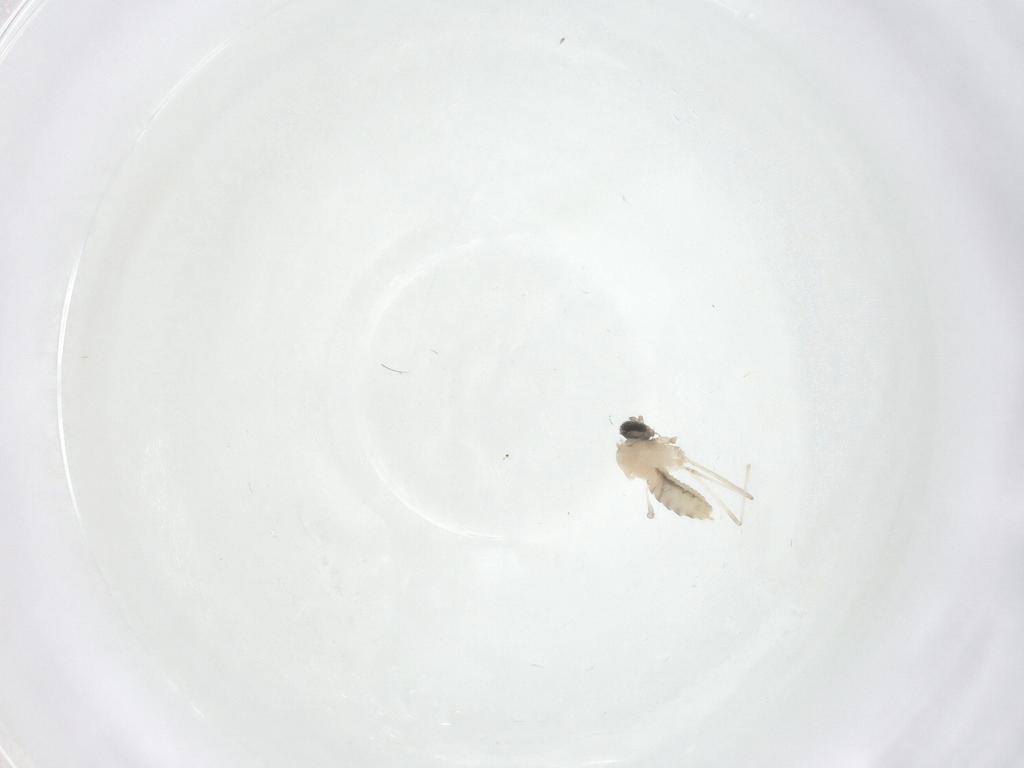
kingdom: Animalia
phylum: Arthropoda
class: Insecta
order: Diptera
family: Cecidomyiidae
